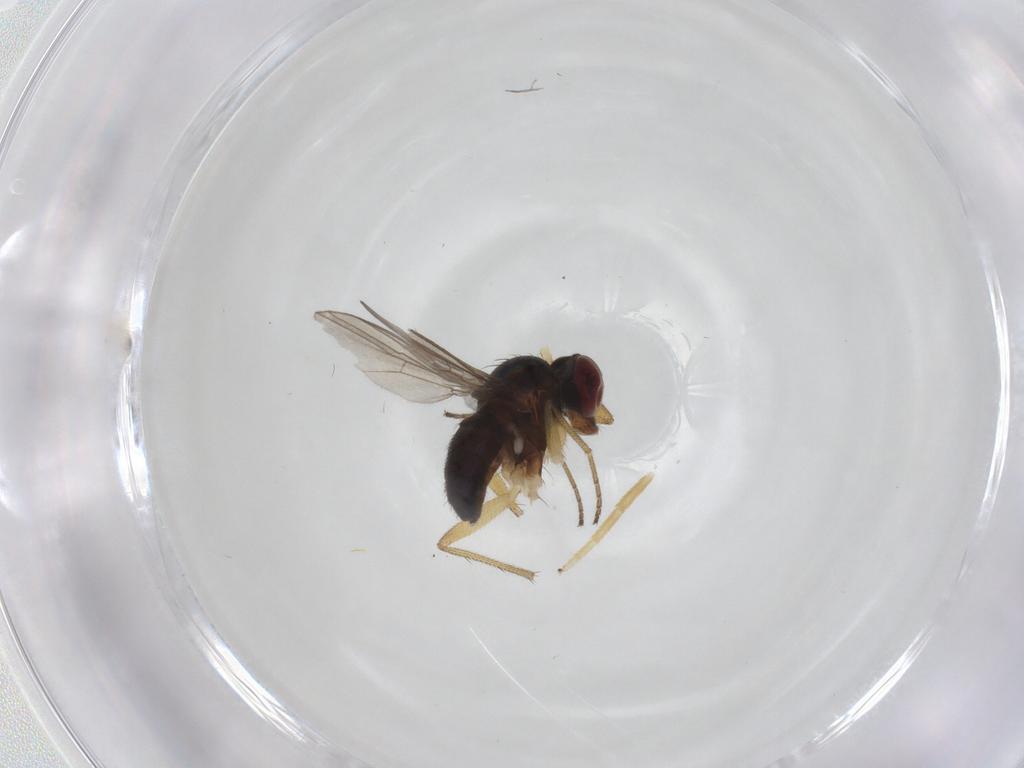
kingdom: Animalia
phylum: Arthropoda
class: Insecta
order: Diptera
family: Dolichopodidae
